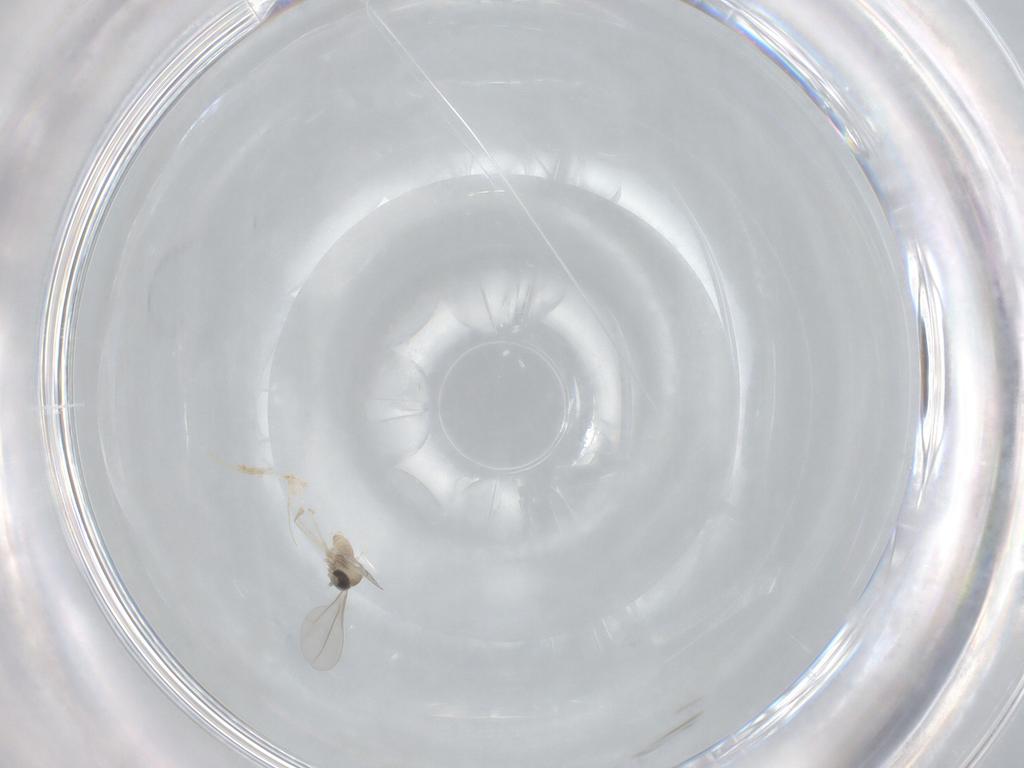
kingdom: Animalia
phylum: Arthropoda
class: Insecta
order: Diptera
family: Cecidomyiidae
